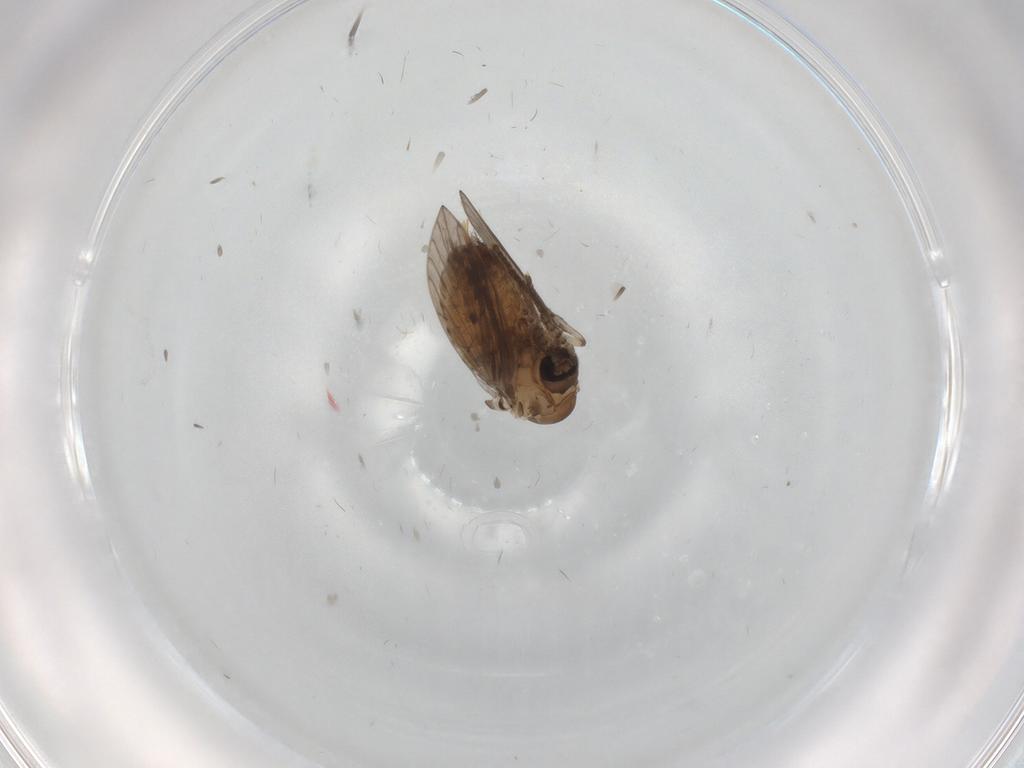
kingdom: Animalia
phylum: Arthropoda
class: Insecta
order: Diptera
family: Psychodidae
